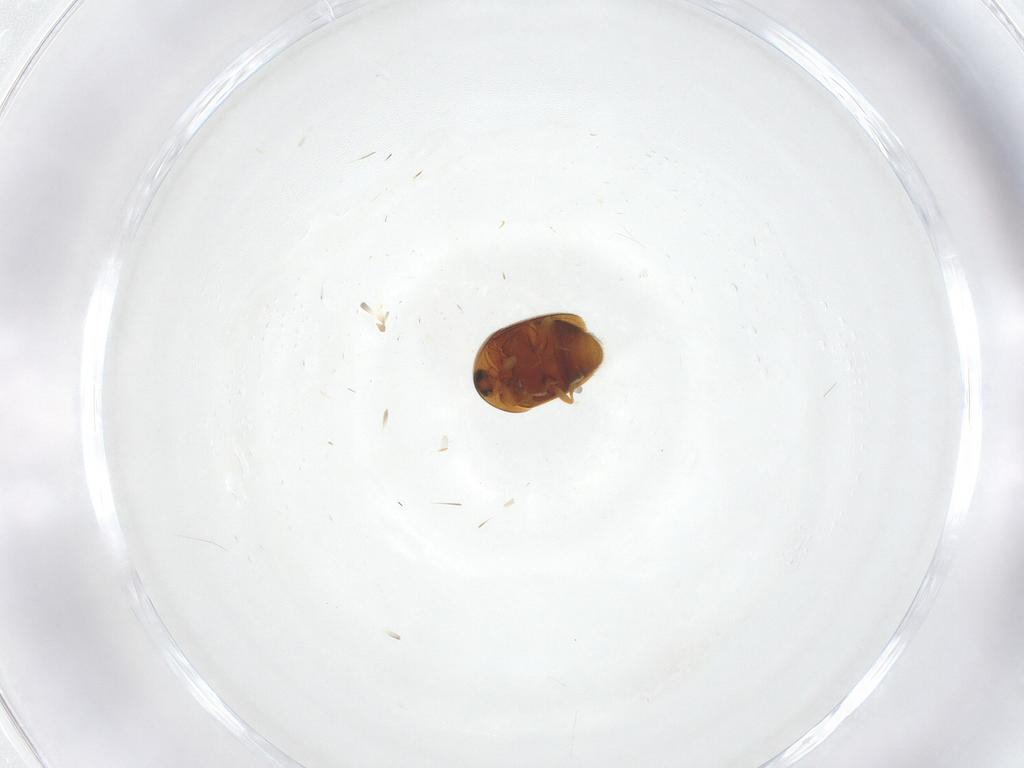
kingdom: Animalia
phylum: Arthropoda
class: Insecta
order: Coleoptera
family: Corylophidae
